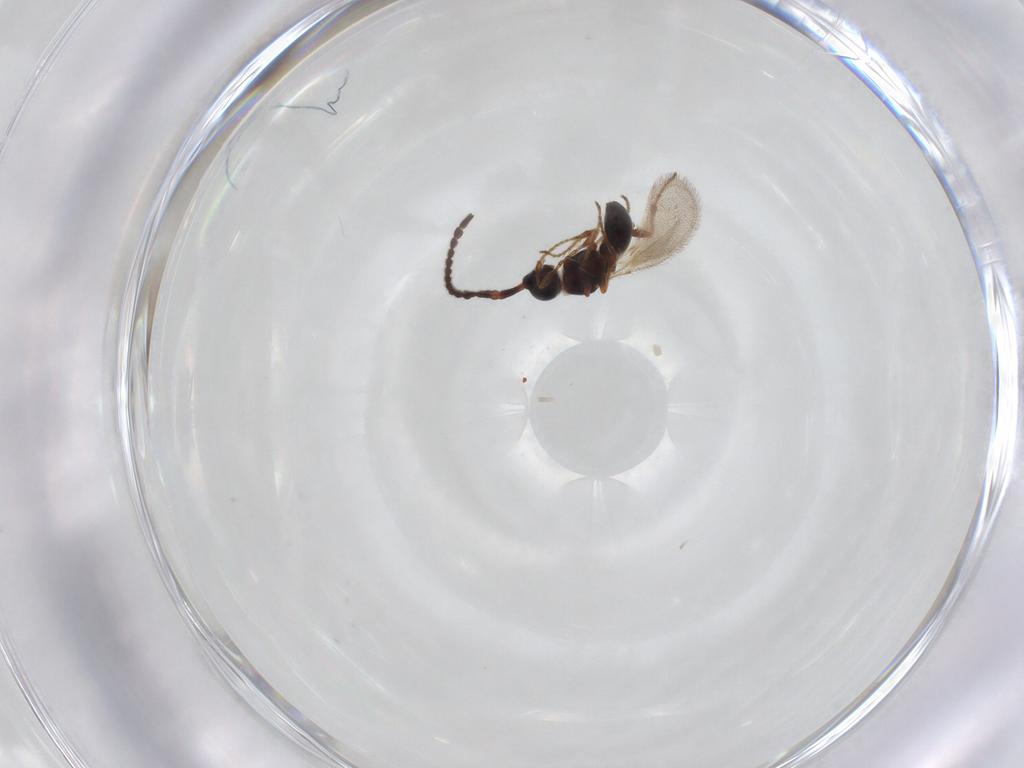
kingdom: Animalia
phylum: Arthropoda
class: Insecta
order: Hymenoptera
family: Diapriidae
